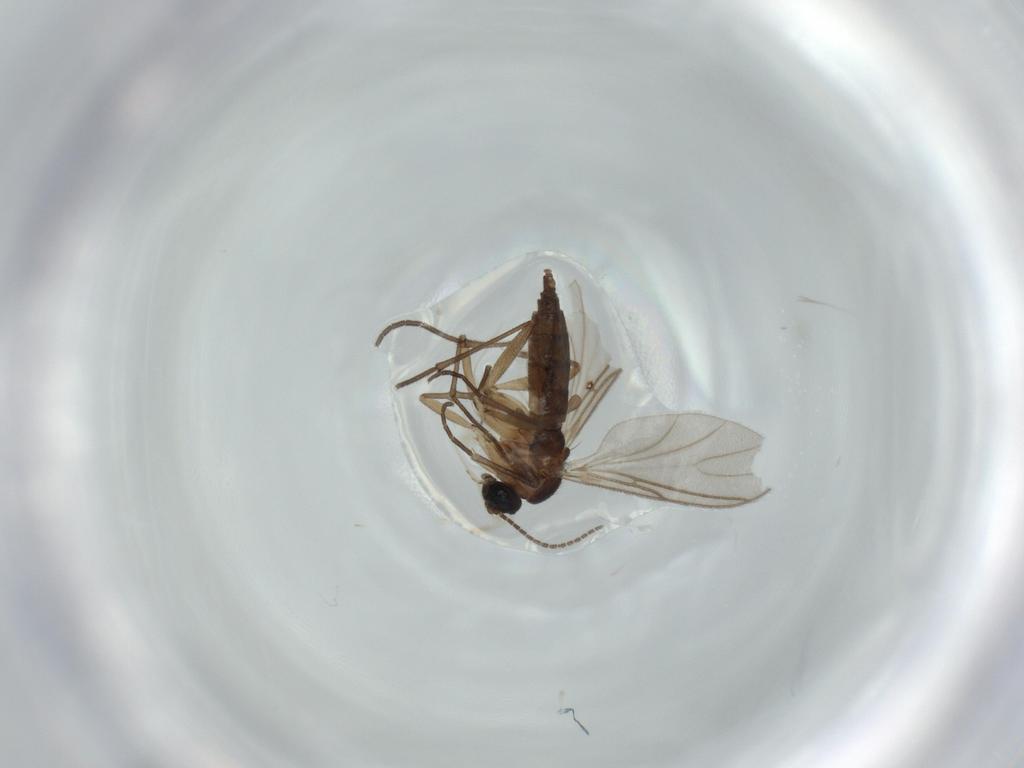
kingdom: Animalia
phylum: Arthropoda
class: Insecta
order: Diptera
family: Sciaridae
